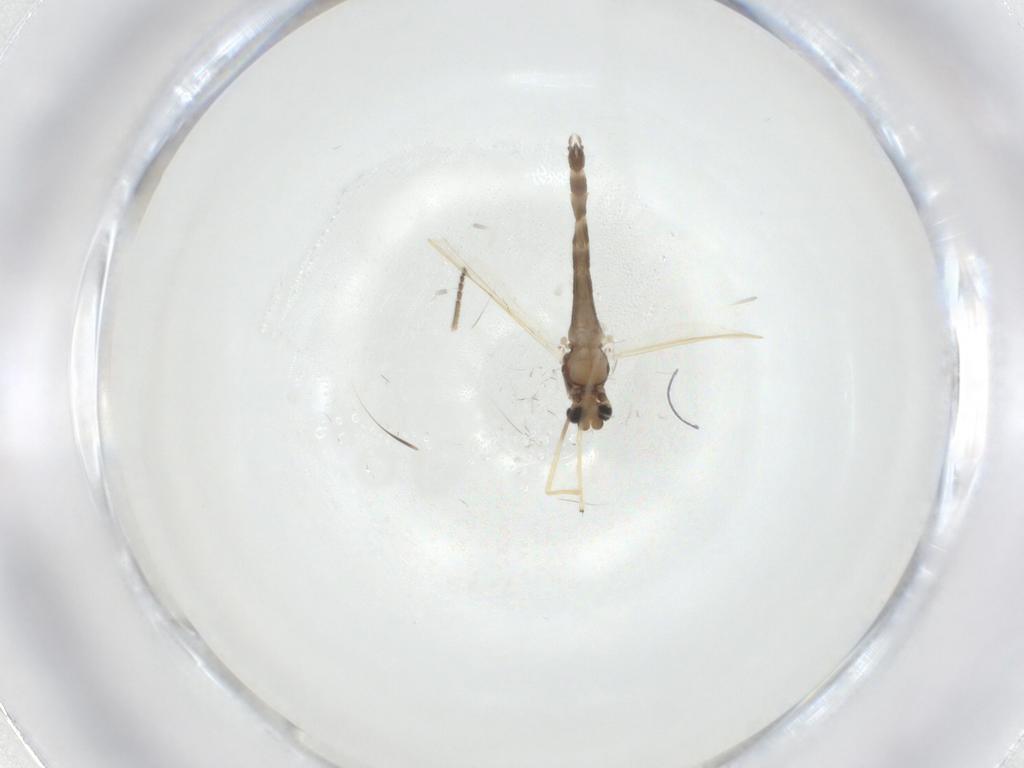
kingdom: Animalia
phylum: Arthropoda
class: Insecta
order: Diptera
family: Chironomidae
